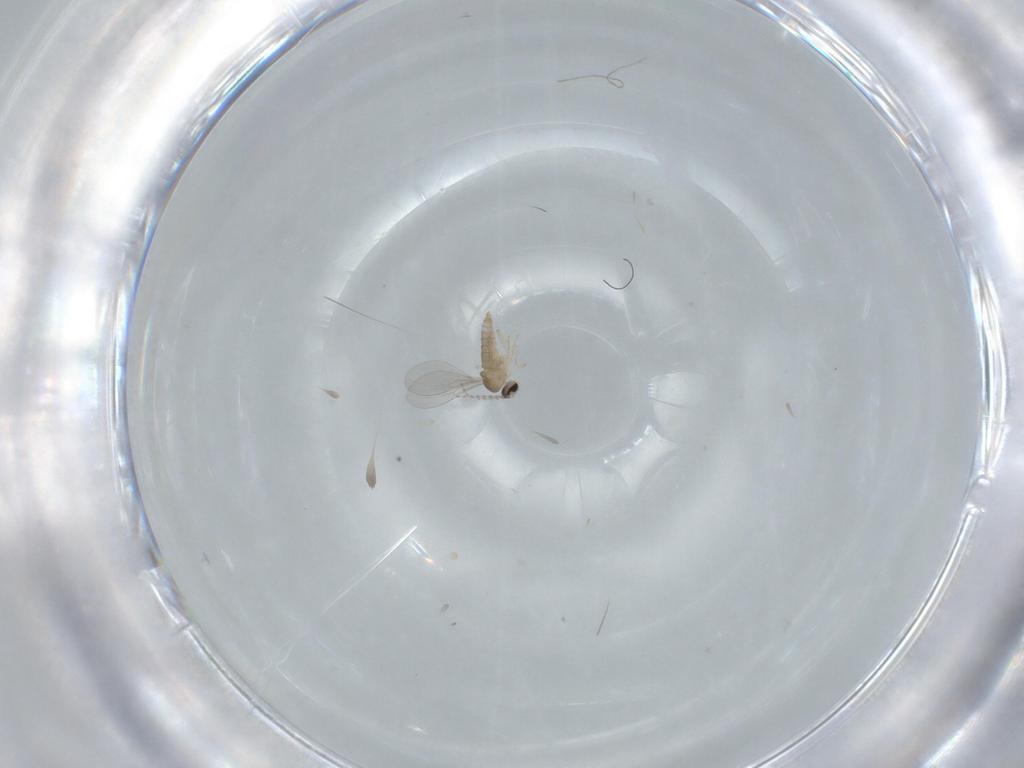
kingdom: Animalia
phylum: Arthropoda
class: Insecta
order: Diptera
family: Cecidomyiidae
